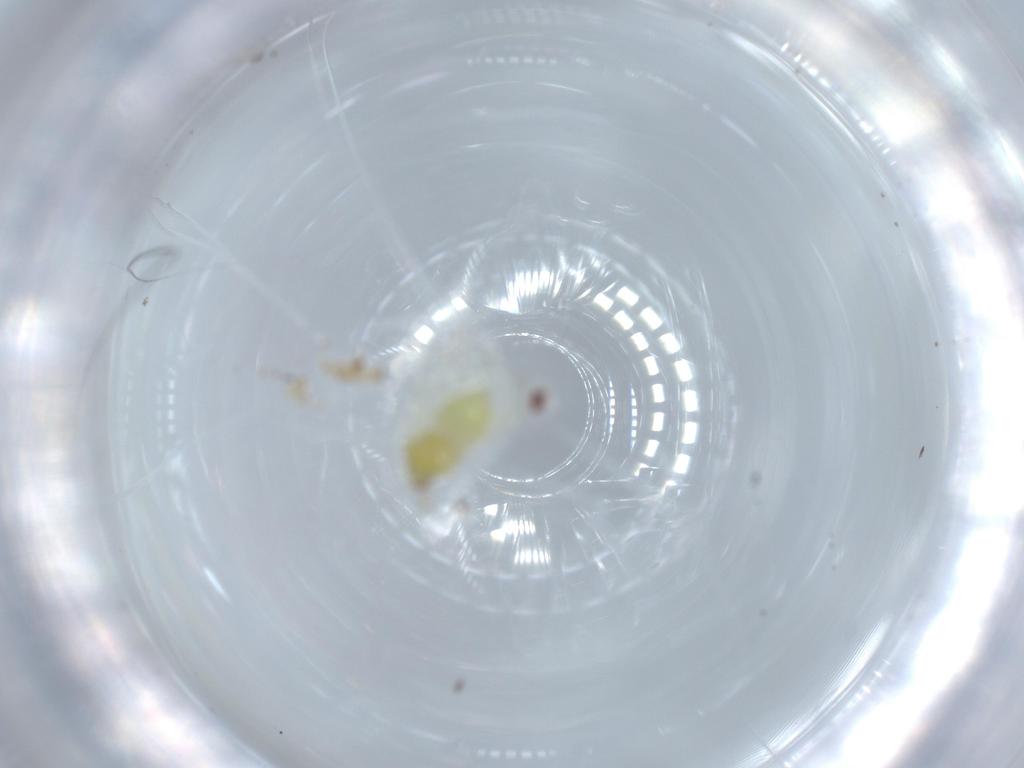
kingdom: Animalia
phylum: Arthropoda
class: Insecta
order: Hemiptera
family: Aleyrodidae
